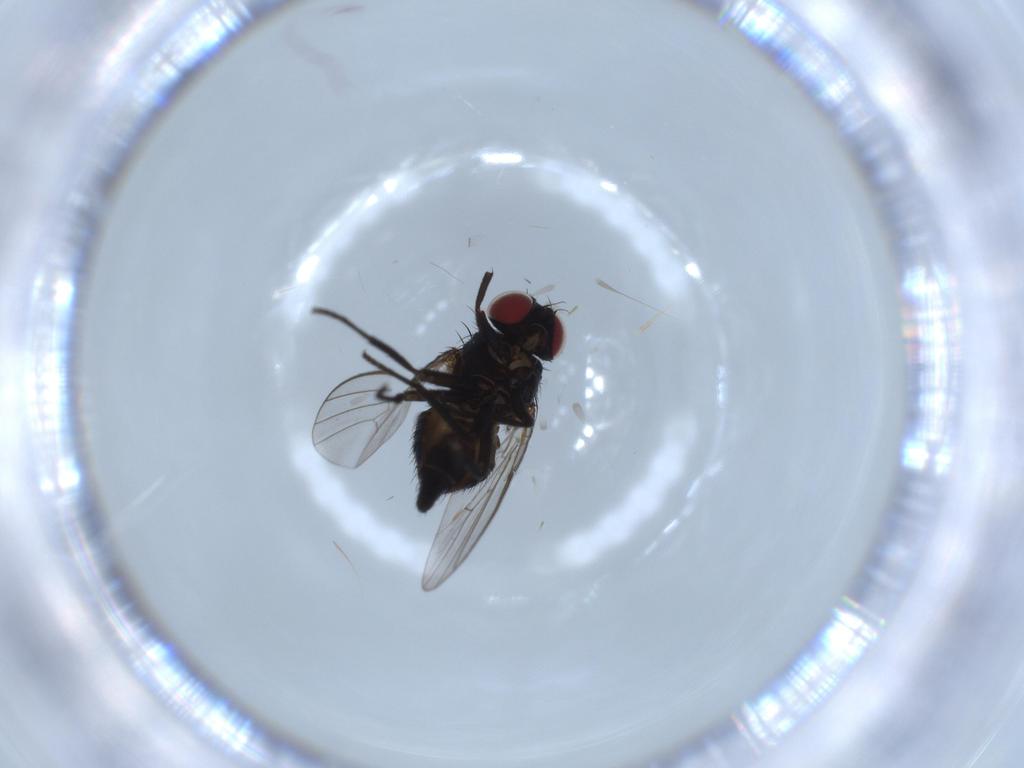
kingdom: Animalia
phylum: Arthropoda
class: Insecta
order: Diptera
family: Agromyzidae
